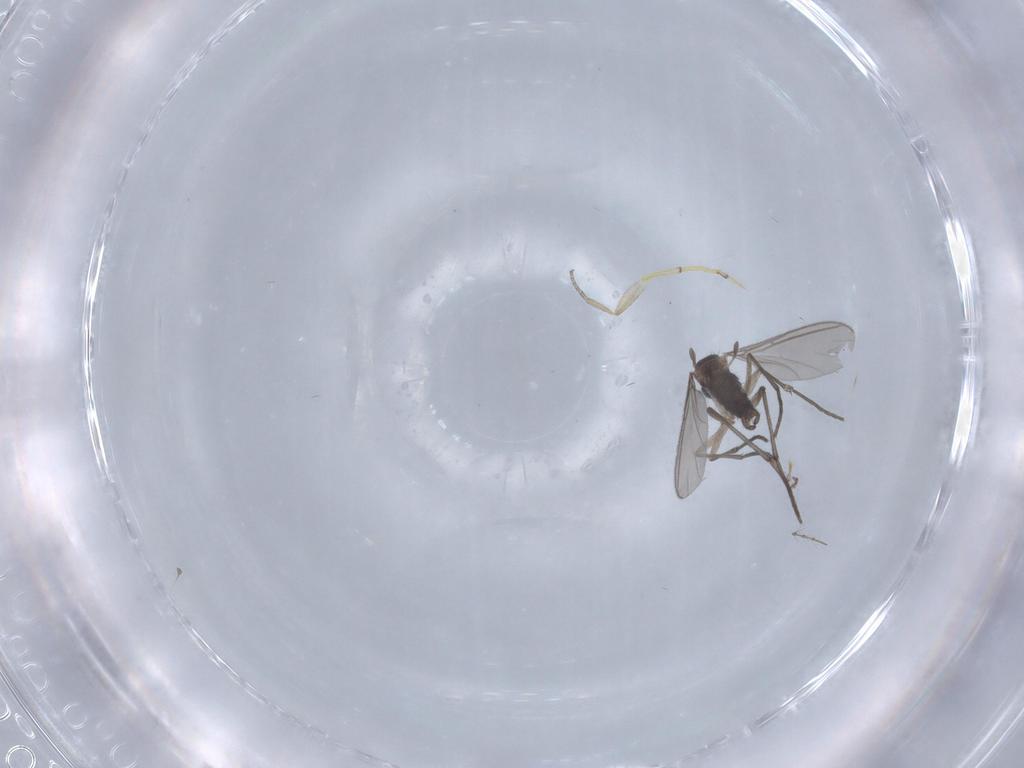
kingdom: Animalia
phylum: Arthropoda
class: Insecta
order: Diptera
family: Sciaridae
